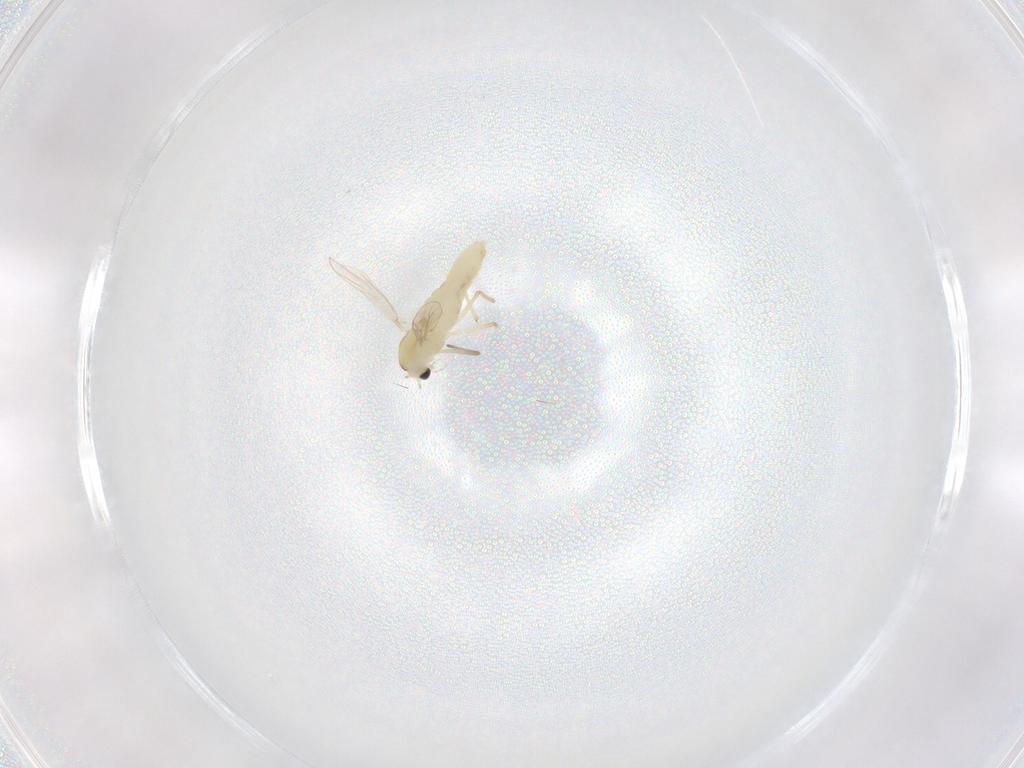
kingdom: Animalia
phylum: Arthropoda
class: Insecta
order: Diptera
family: Chironomidae
